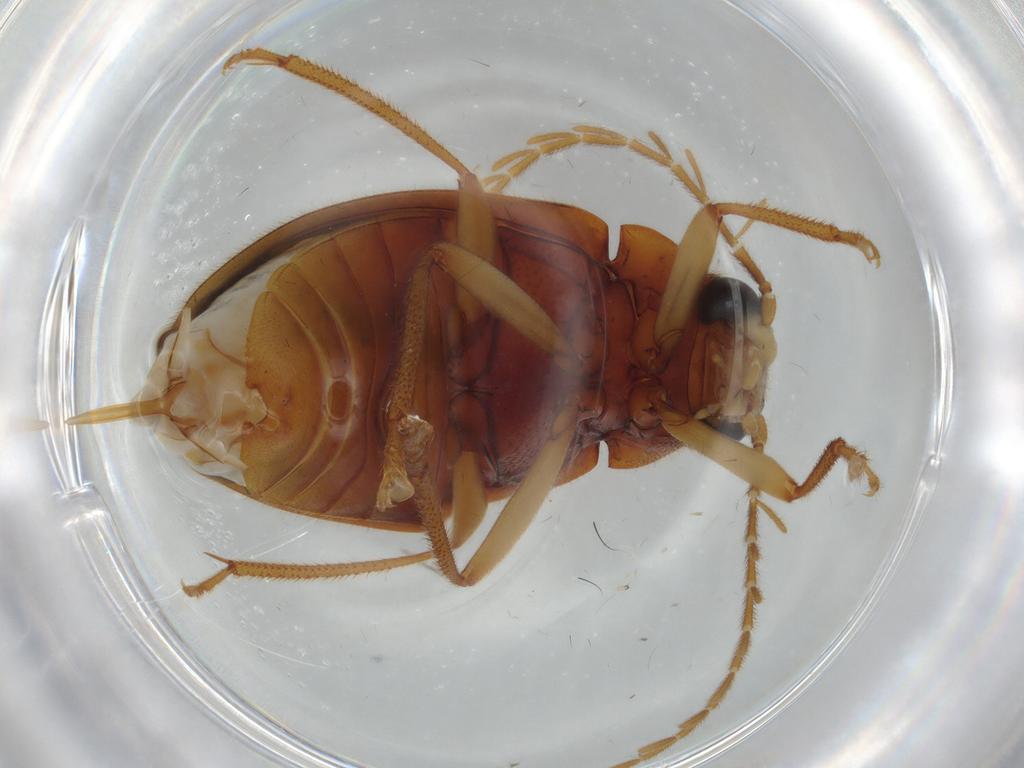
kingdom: Animalia
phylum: Arthropoda
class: Insecta
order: Coleoptera
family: Ptilodactylidae
